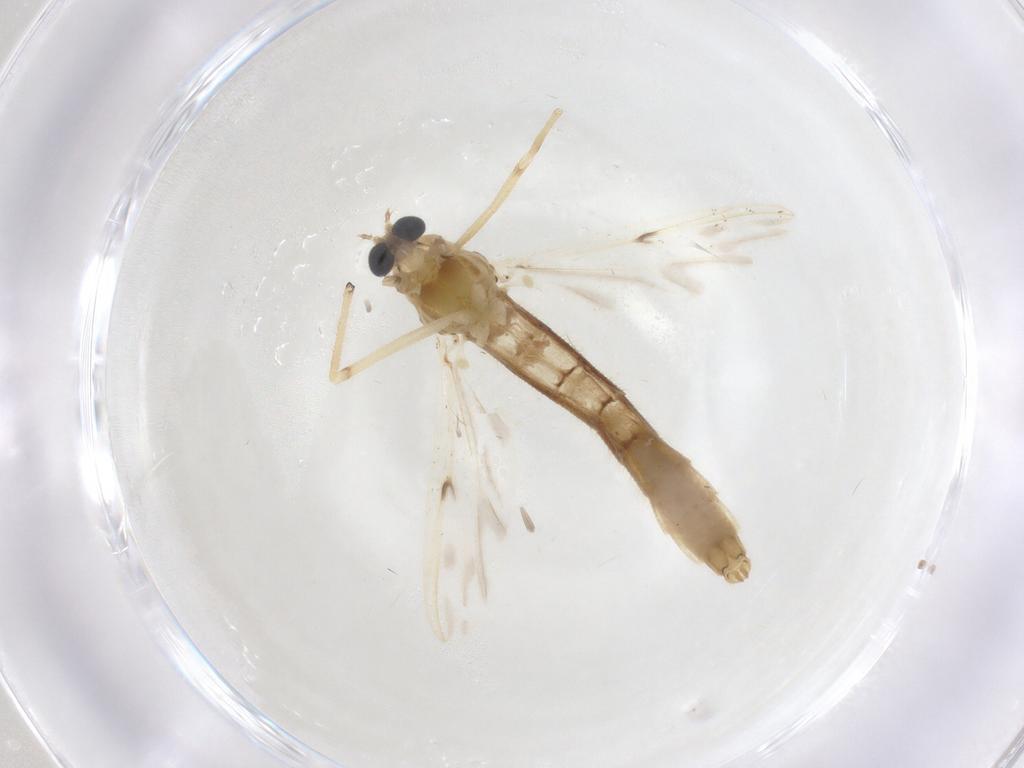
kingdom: Animalia
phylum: Arthropoda
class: Insecta
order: Diptera
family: Chironomidae
